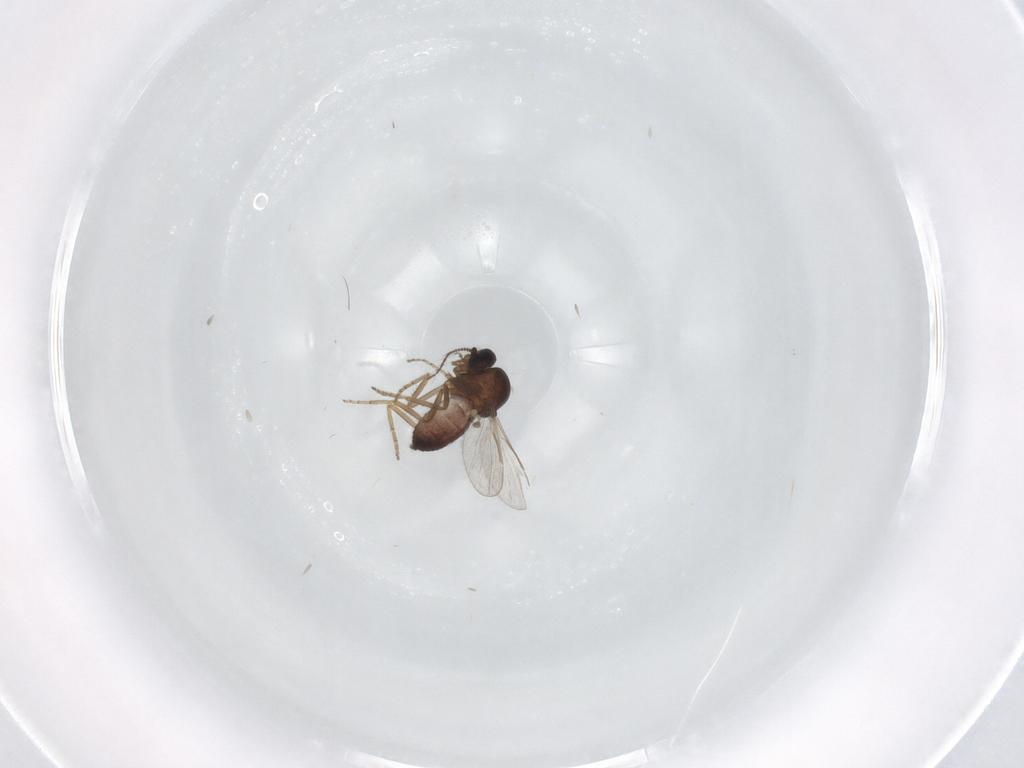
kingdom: Animalia
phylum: Arthropoda
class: Insecta
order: Diptera
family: Ceratopogonidae
